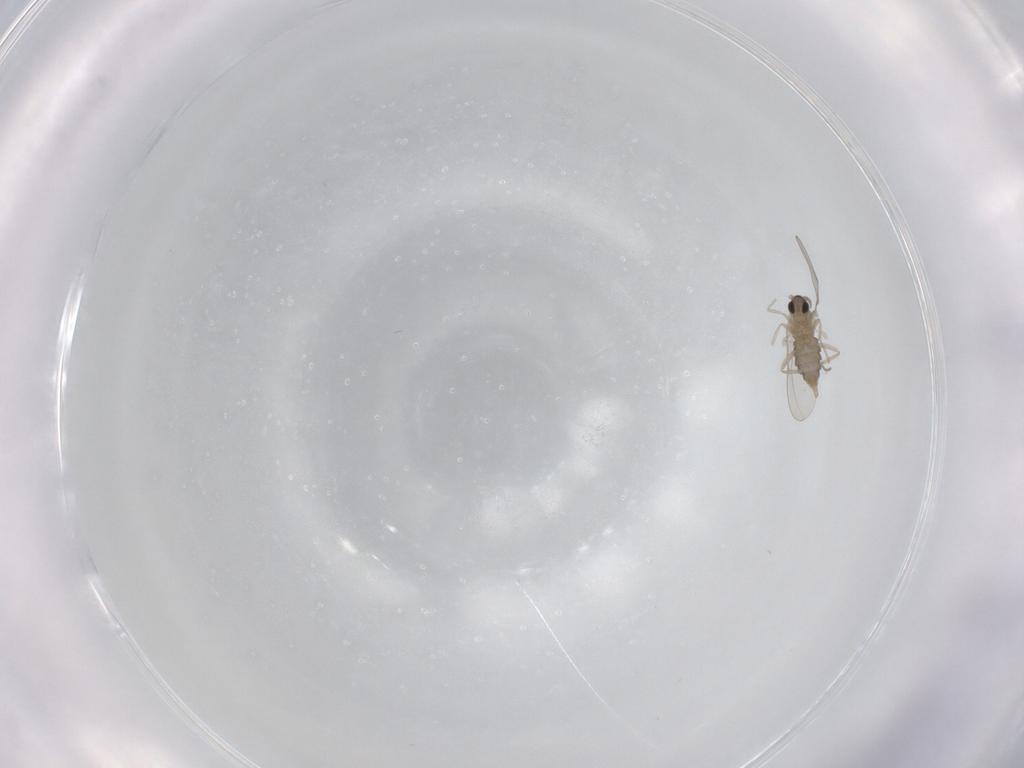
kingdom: Animalia
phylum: Arthropoda
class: Insecta
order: Diptera
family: Cecidomyiidae
